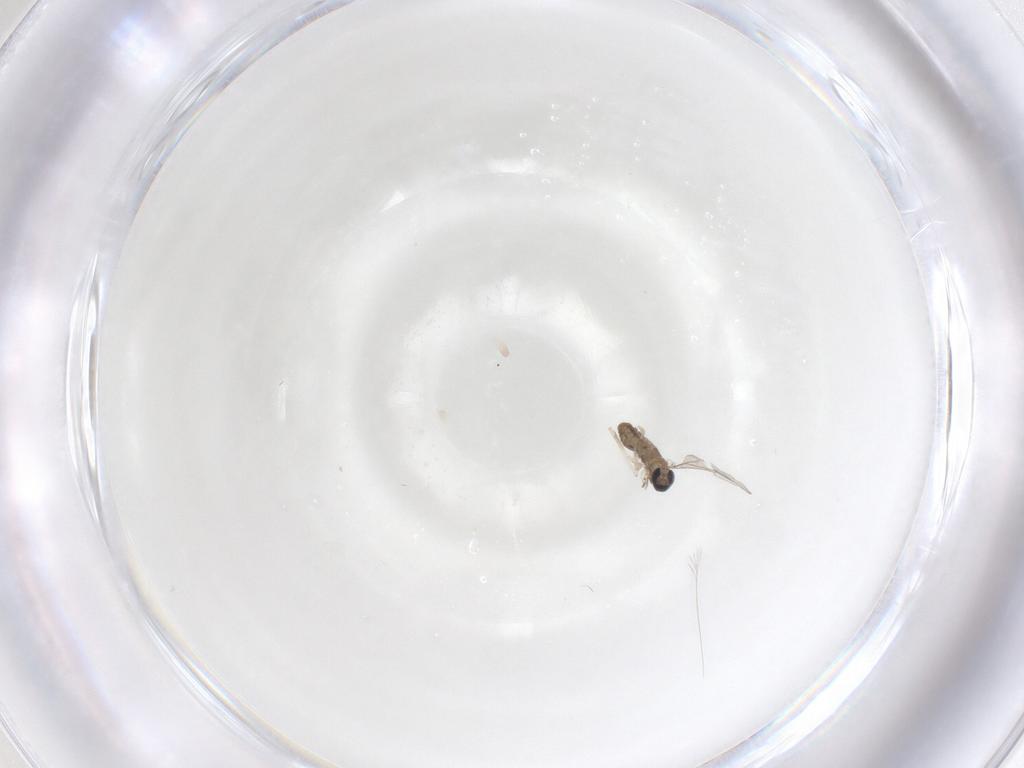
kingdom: Animalia
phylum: Arthropoda
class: Insecta
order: Diptera
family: Cecidomyiidae
